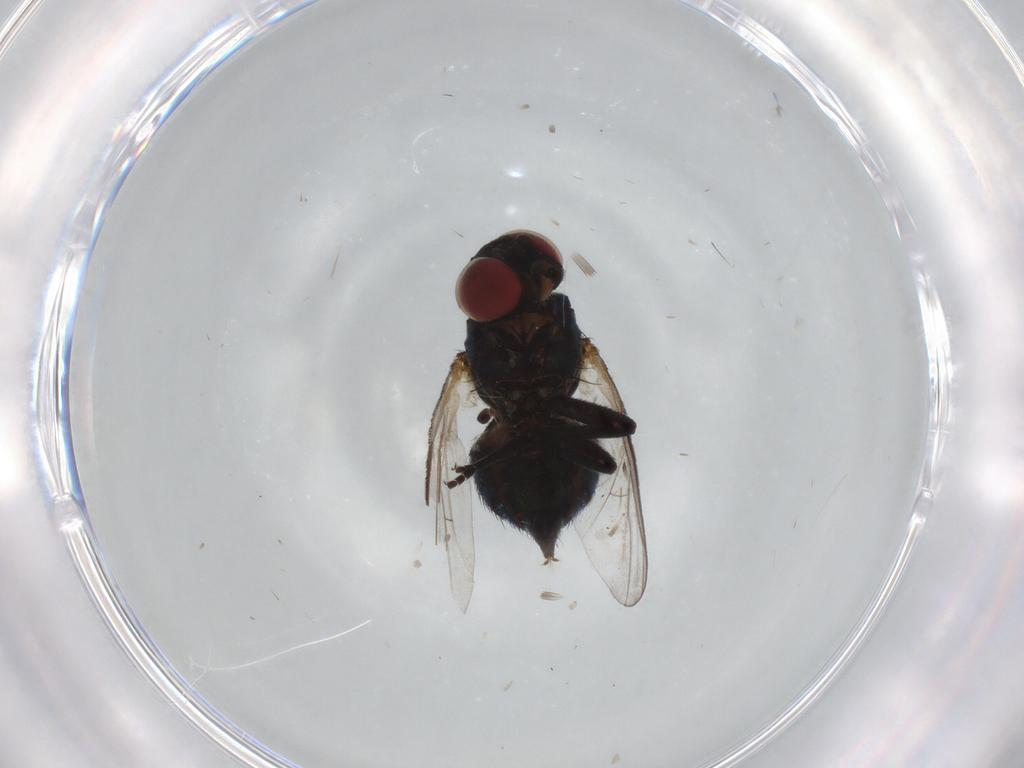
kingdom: Animalia
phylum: Arthropoda
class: Insecta
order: Diptera
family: Agromyzidae
